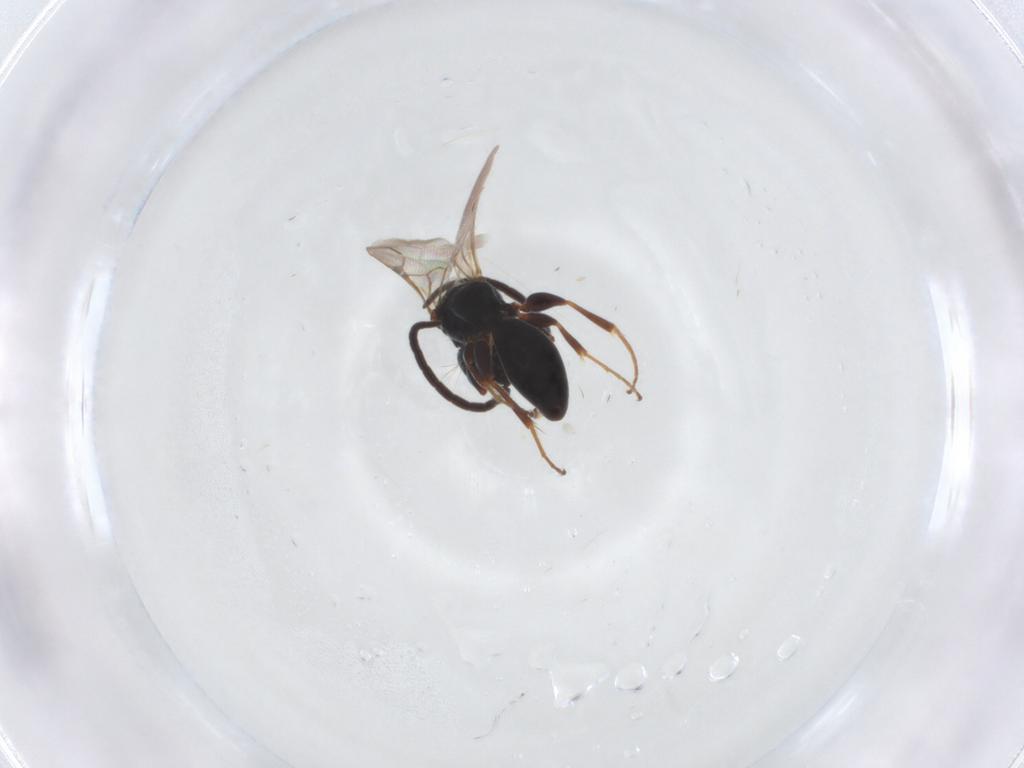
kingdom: Animalia
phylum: Arthropoda
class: Insecta
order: Hymenoptera
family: Bethylidae
